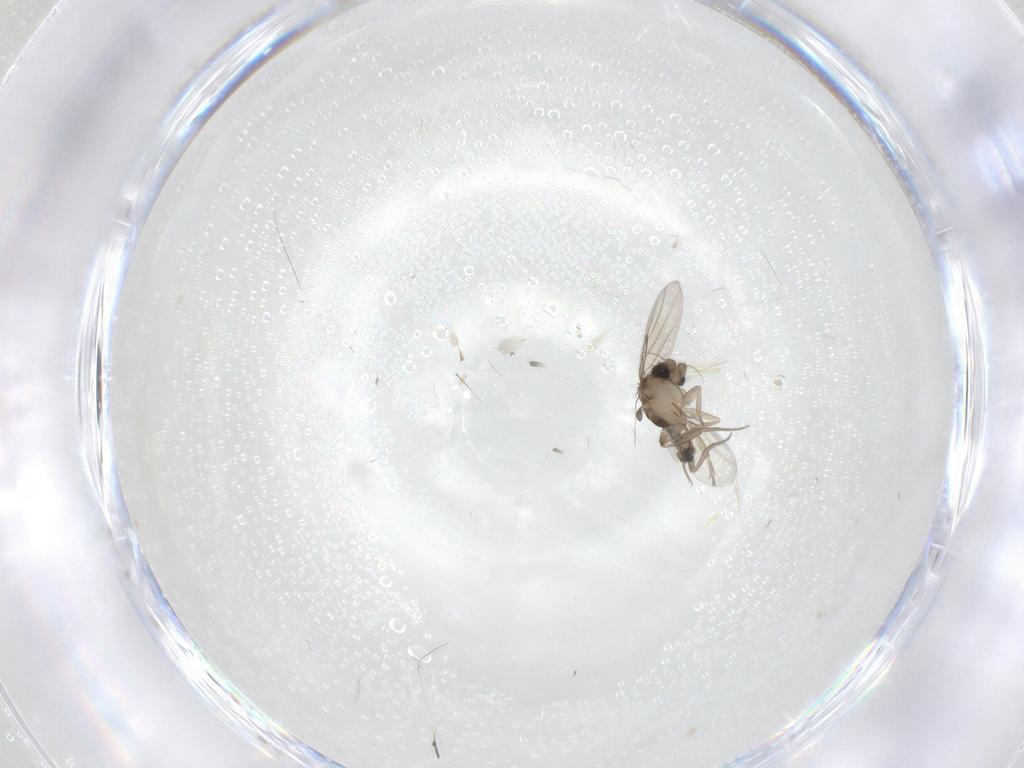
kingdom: Animalia
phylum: Arthropoda
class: Insecta
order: Diptera
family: Phoridae
